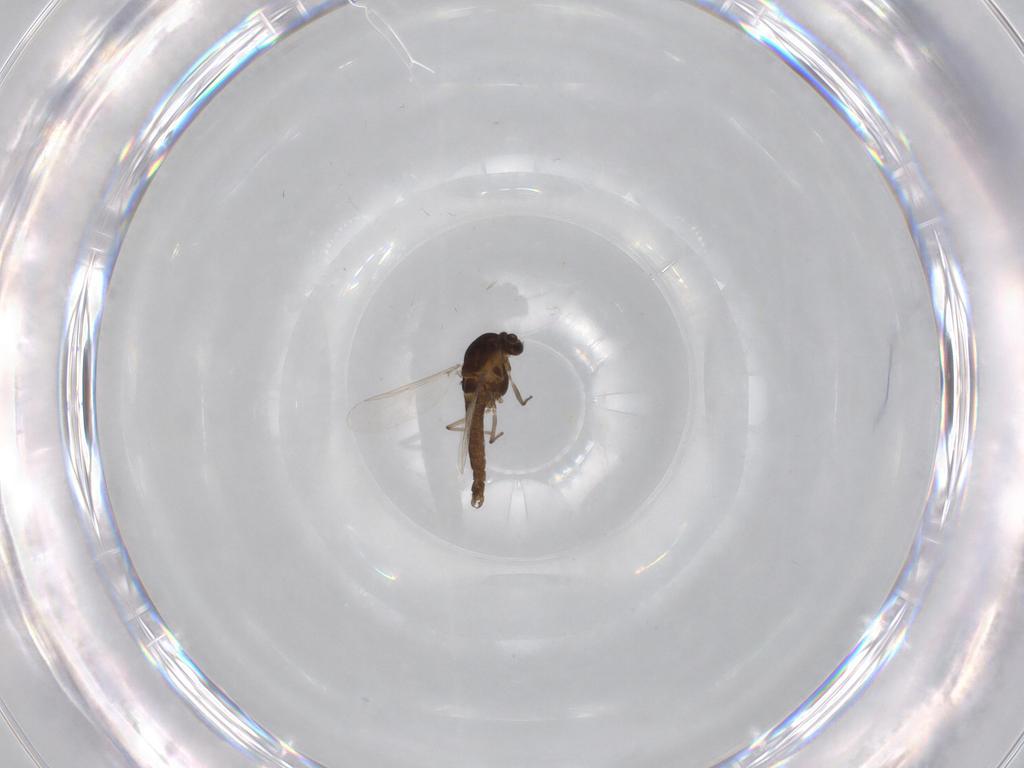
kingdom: Animalia
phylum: Arthropoda
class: Insecta
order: Diptera
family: Chironomidae
